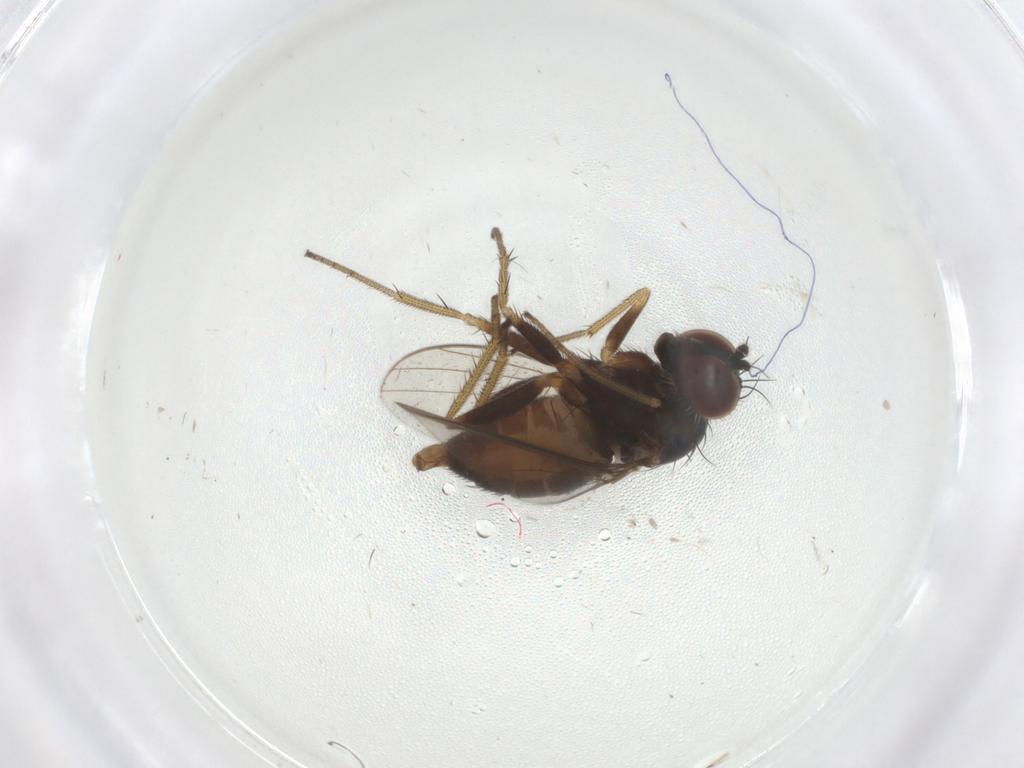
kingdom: Animalia
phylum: Arthropoda
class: Insecta
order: Diptera
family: Dolichopodidae
